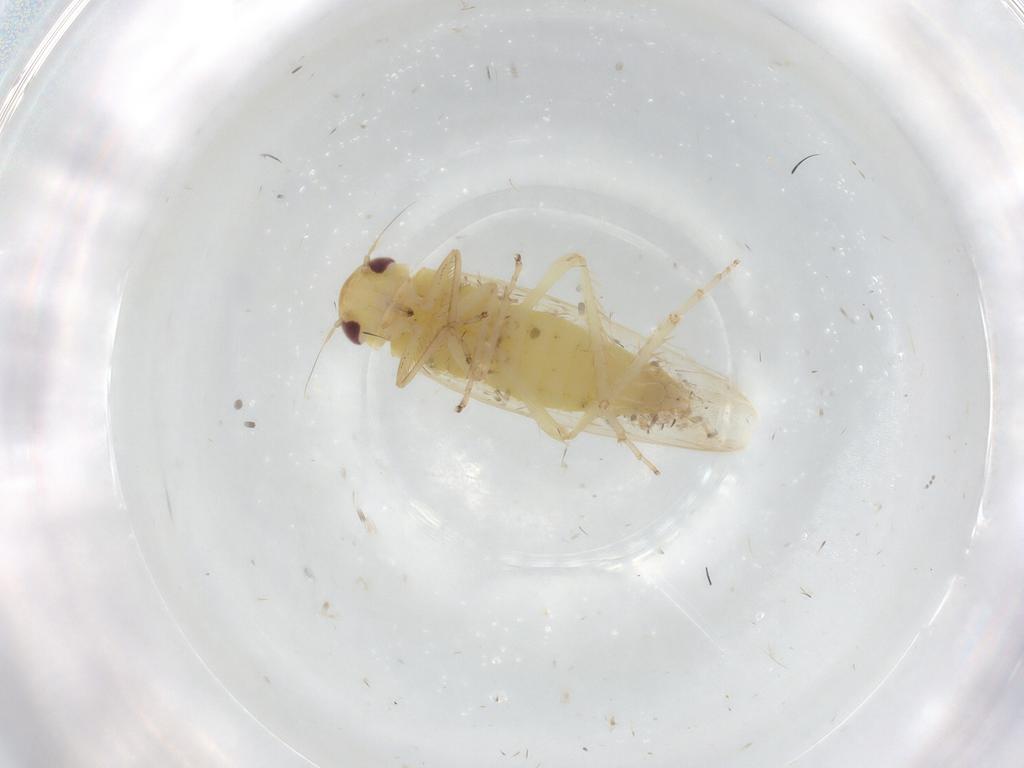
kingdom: Animalia
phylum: Arthropoda
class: Insecta
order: Hemiptera
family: Cicadellidae
